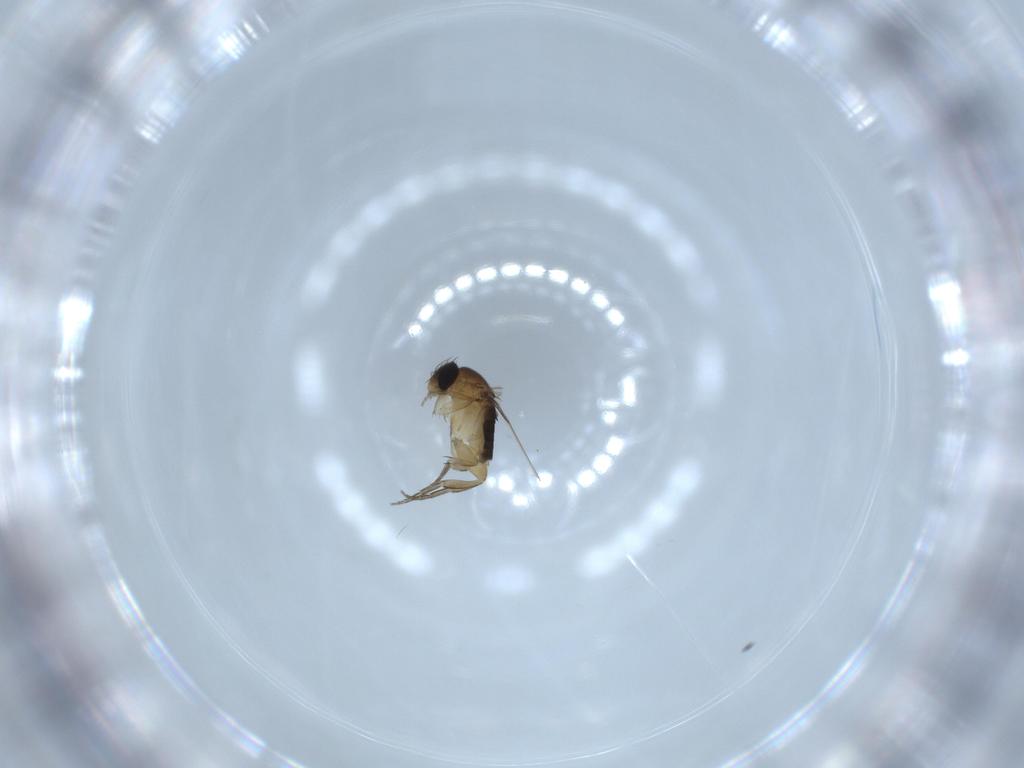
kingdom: Animalia
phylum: Arthropoda
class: Insecta
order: Diptera
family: Phoridae
